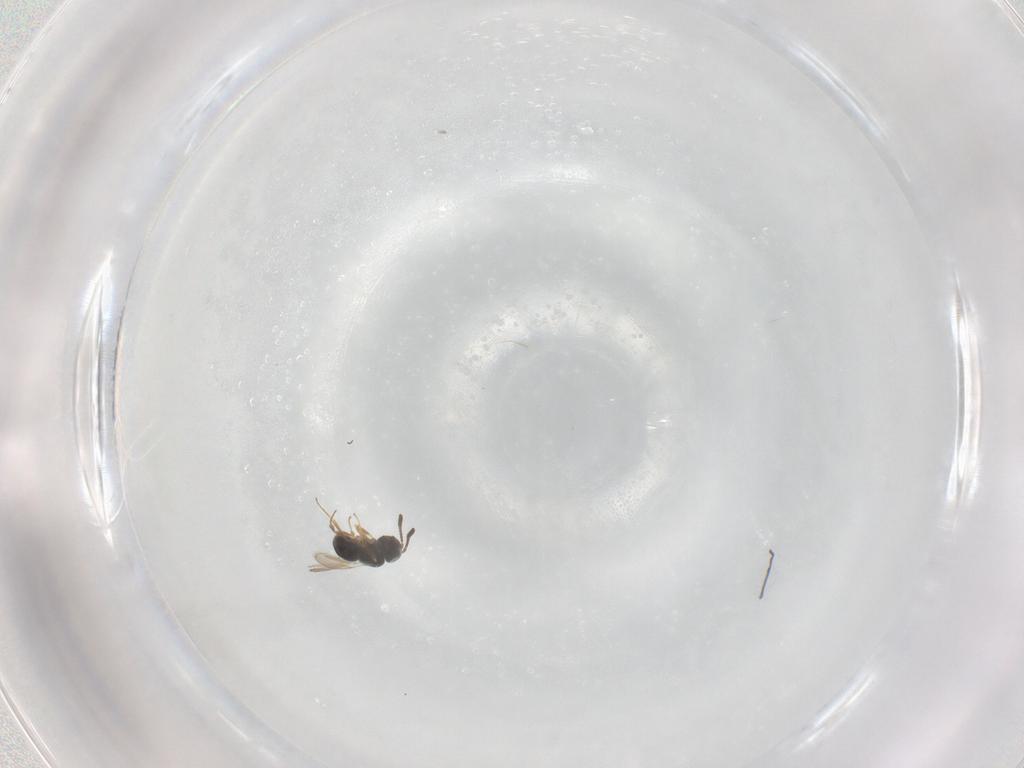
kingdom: Animalia
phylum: Arthropoda
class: Insecta
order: Hymenoptera
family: Scelionidae
